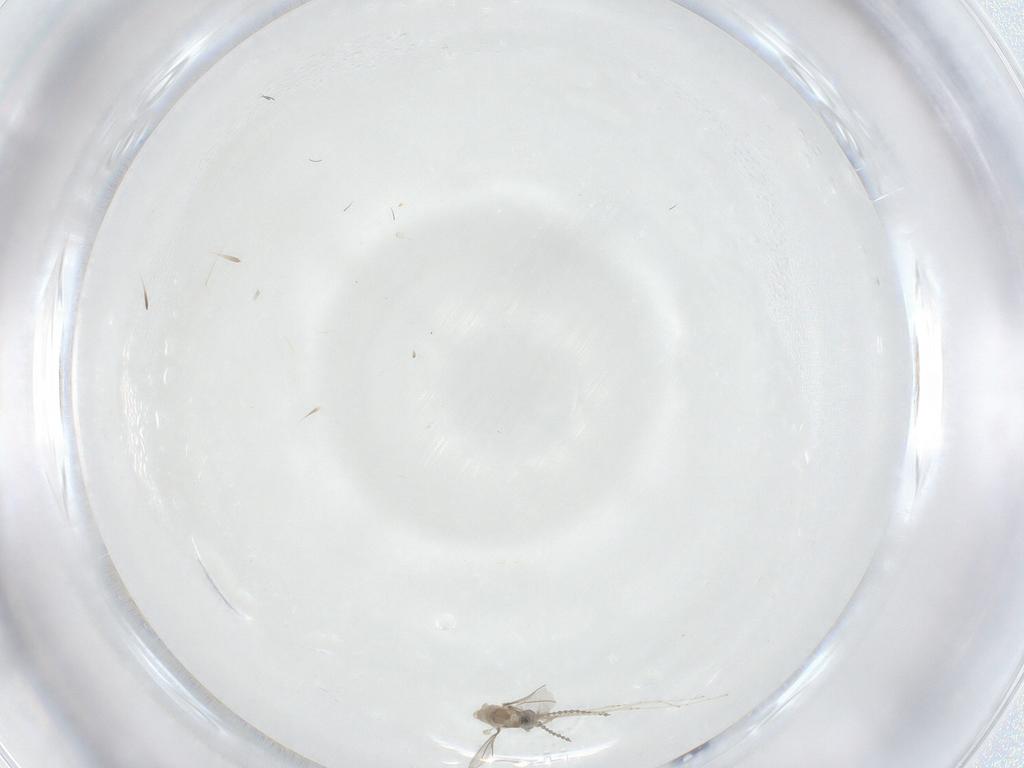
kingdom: Animalia
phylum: Arthropoda
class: Insecta
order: Diptera
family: Tabanidae
